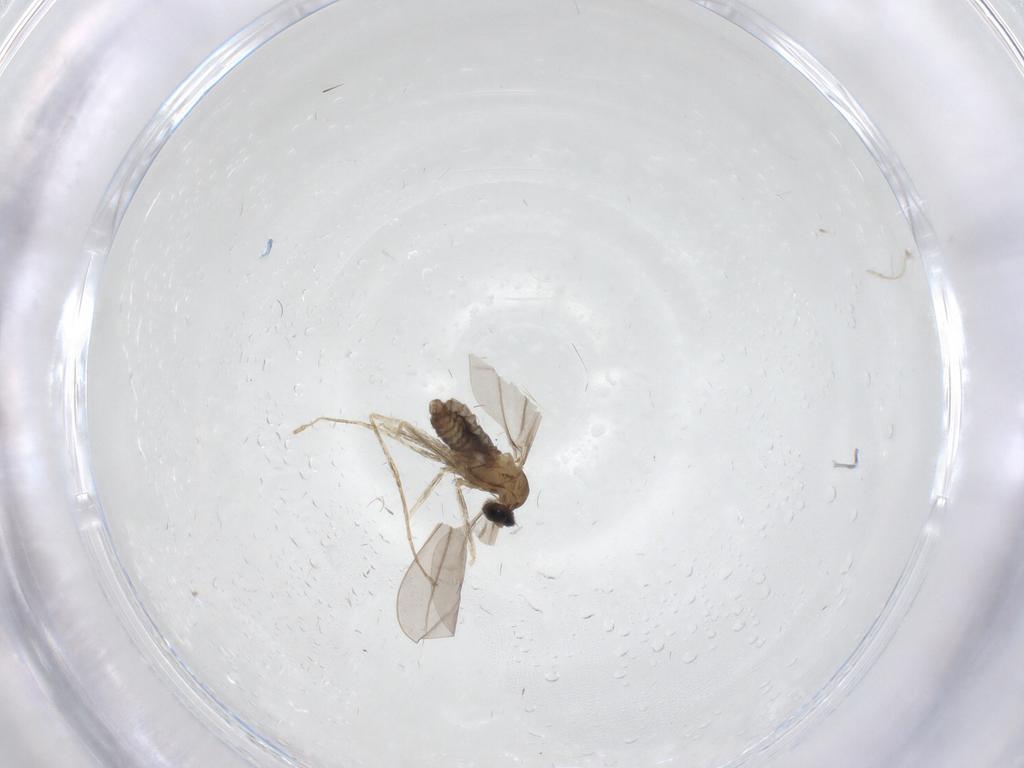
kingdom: Animalia
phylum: Arthropoda
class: Insecta
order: Diptera
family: Cecidomyiidae
